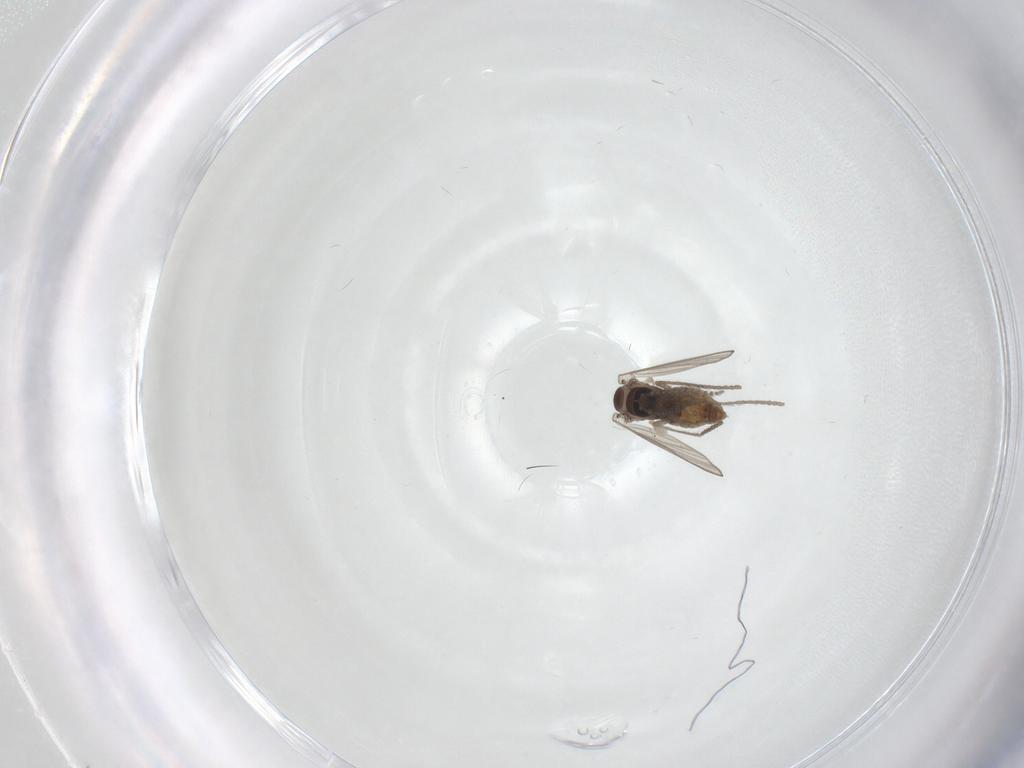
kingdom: Animalia
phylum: Arthropoda
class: Insecta
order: Diptera
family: Psychodidae
